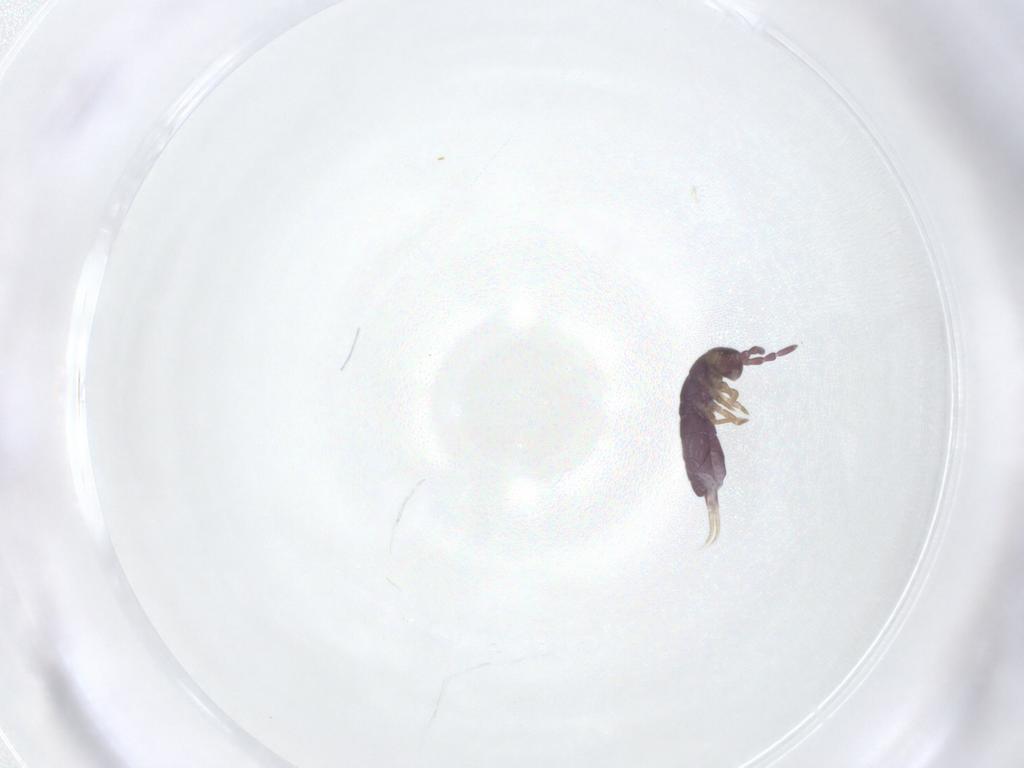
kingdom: Animalia
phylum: Arthropoda
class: Collembola
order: Entomobryomorpha
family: Isotomidae
